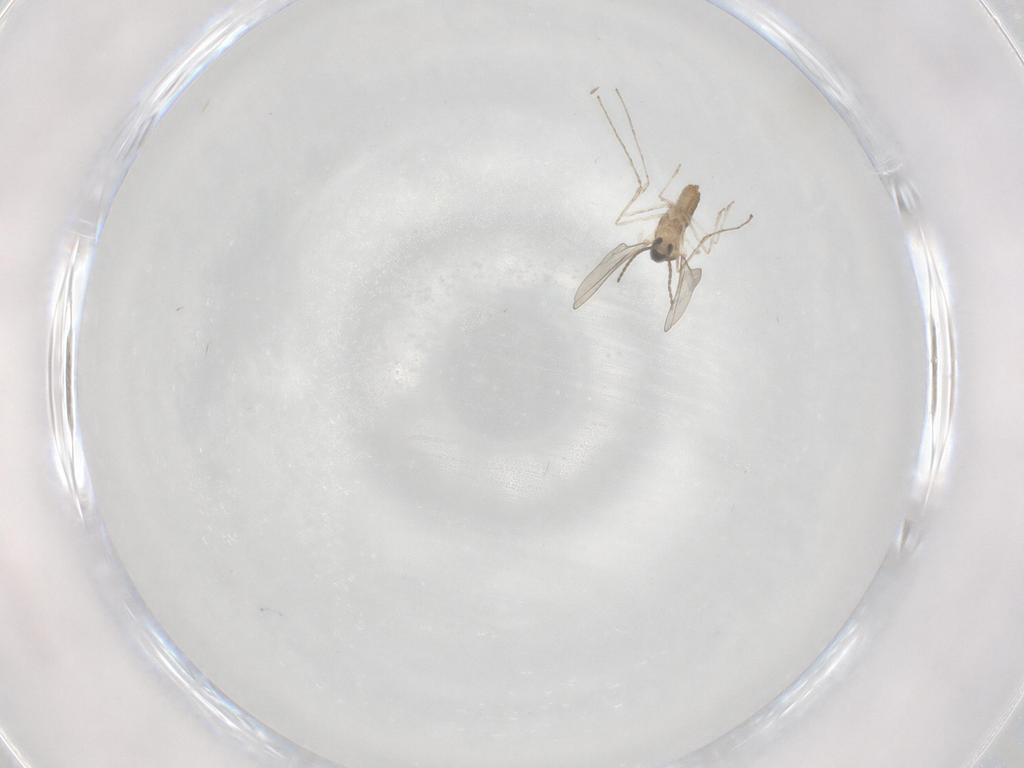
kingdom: Animalia
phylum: Arthropoda
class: Insecta
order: Diptera
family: Cecidomyiidae
